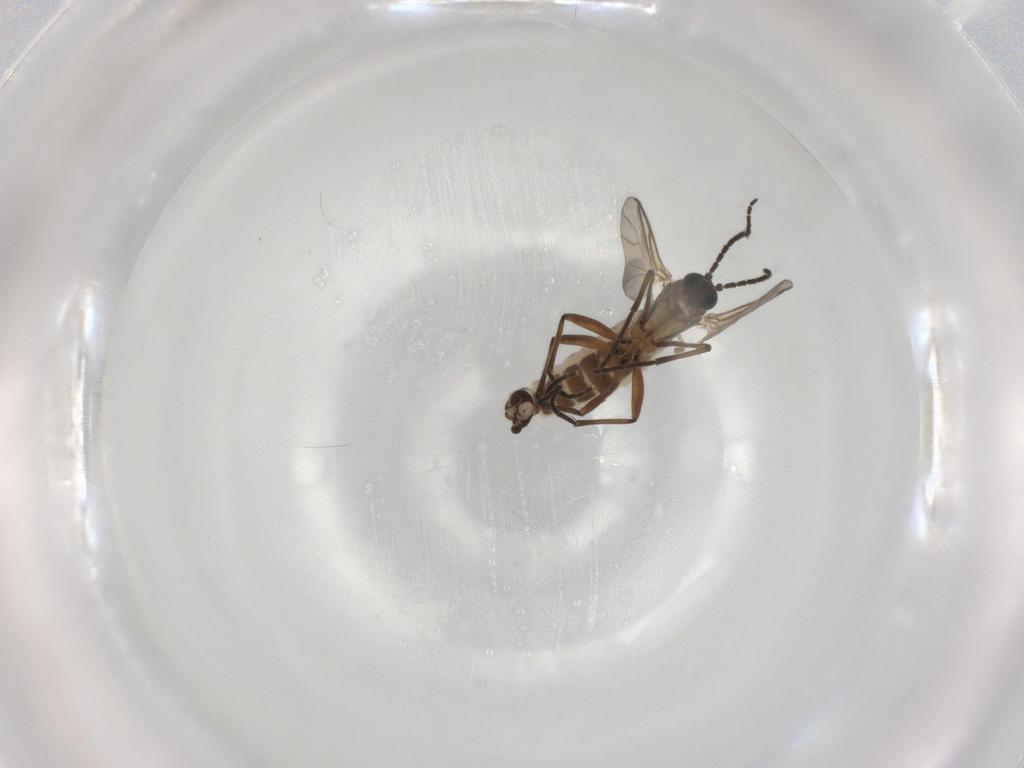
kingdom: Animalia
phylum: Arthropoda
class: Insecta
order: Diptera
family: Sciaridae
